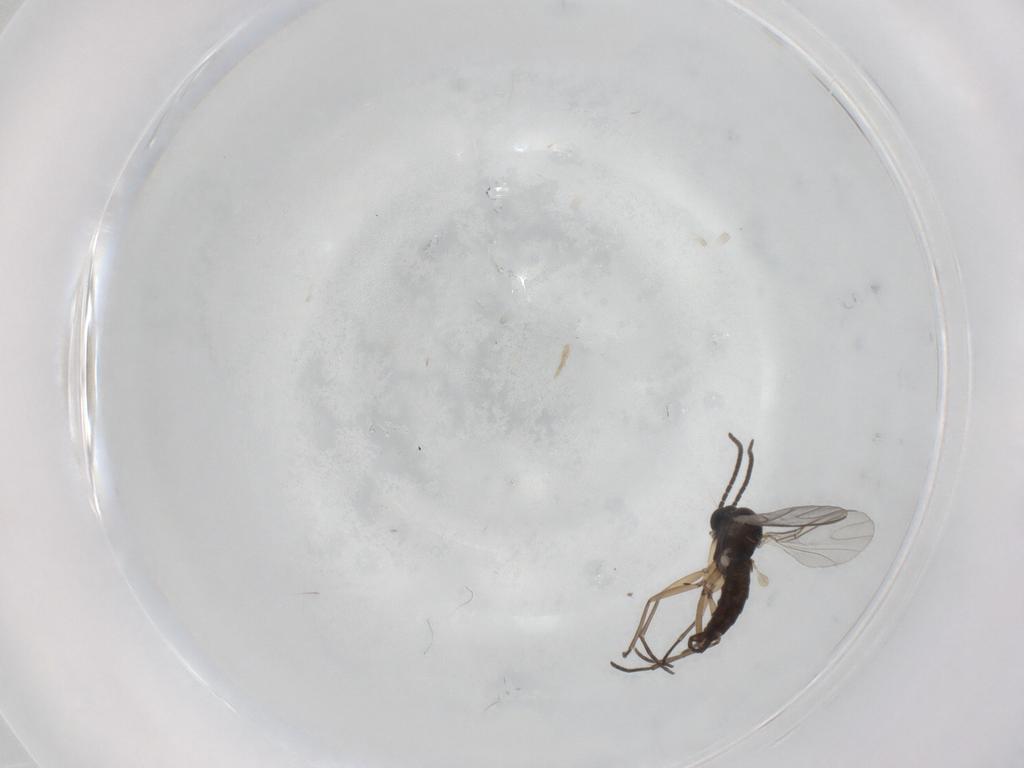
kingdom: Animalia
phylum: Arthropoda
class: Insecta
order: Diptera
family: Sciaridae
